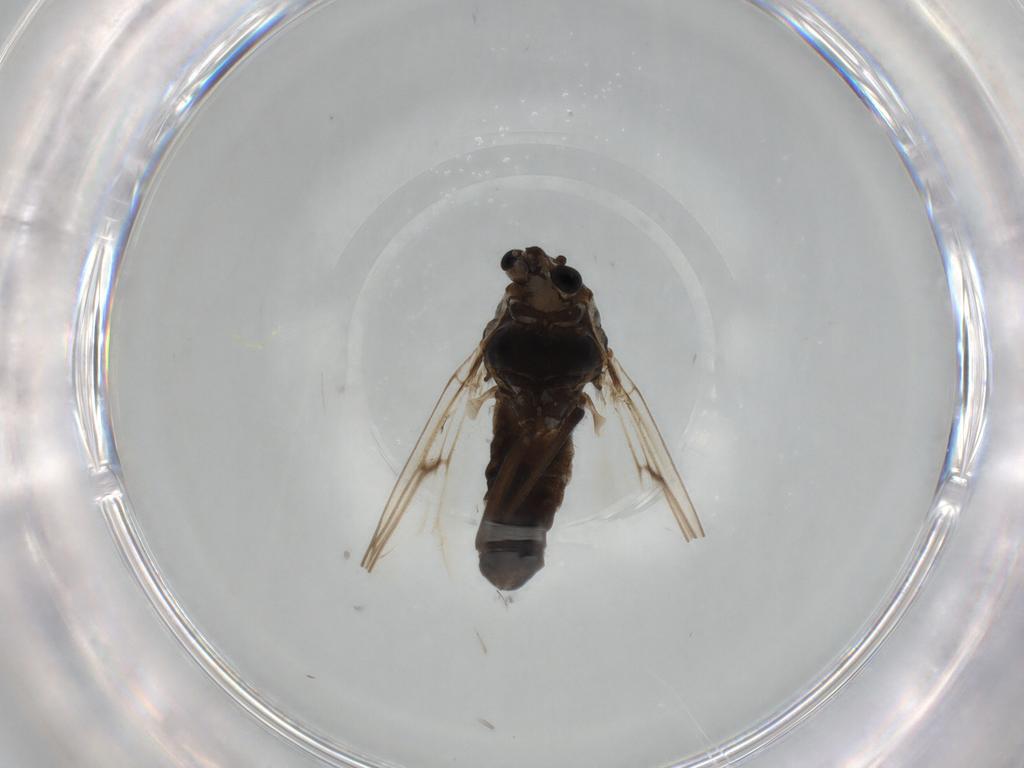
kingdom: Animalia
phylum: Arthropoda
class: Insecta
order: Diptera
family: Chironomidae
